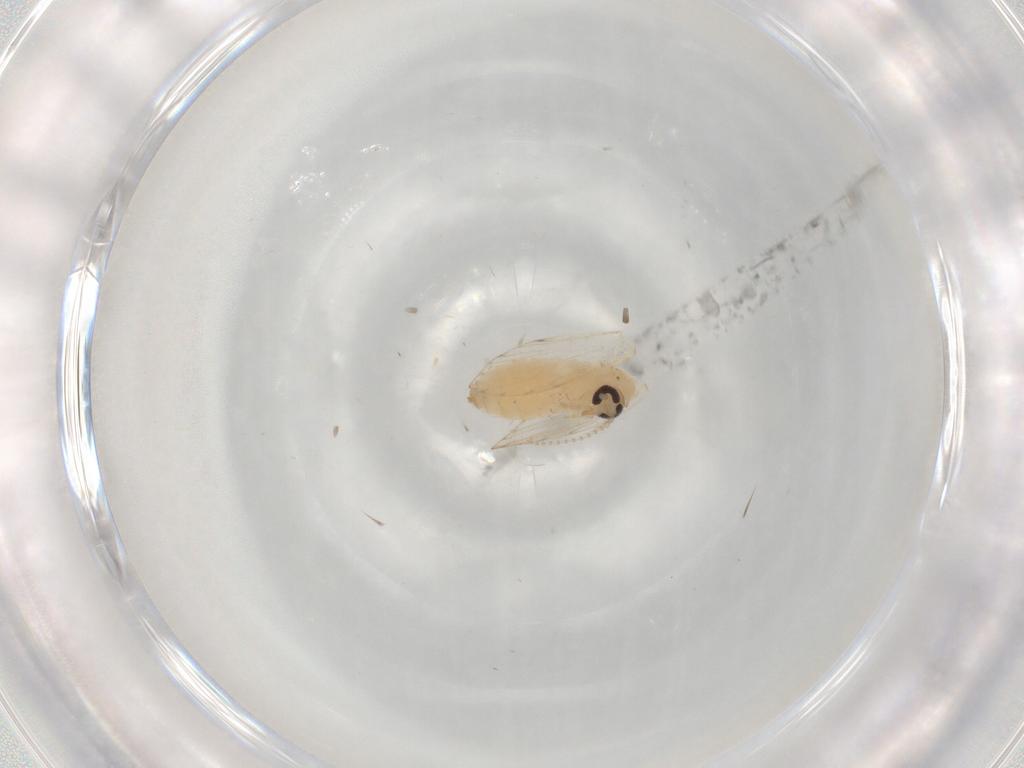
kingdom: Animalia
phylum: Arthropoda
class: Insecta
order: Diptera
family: Psychodidae
